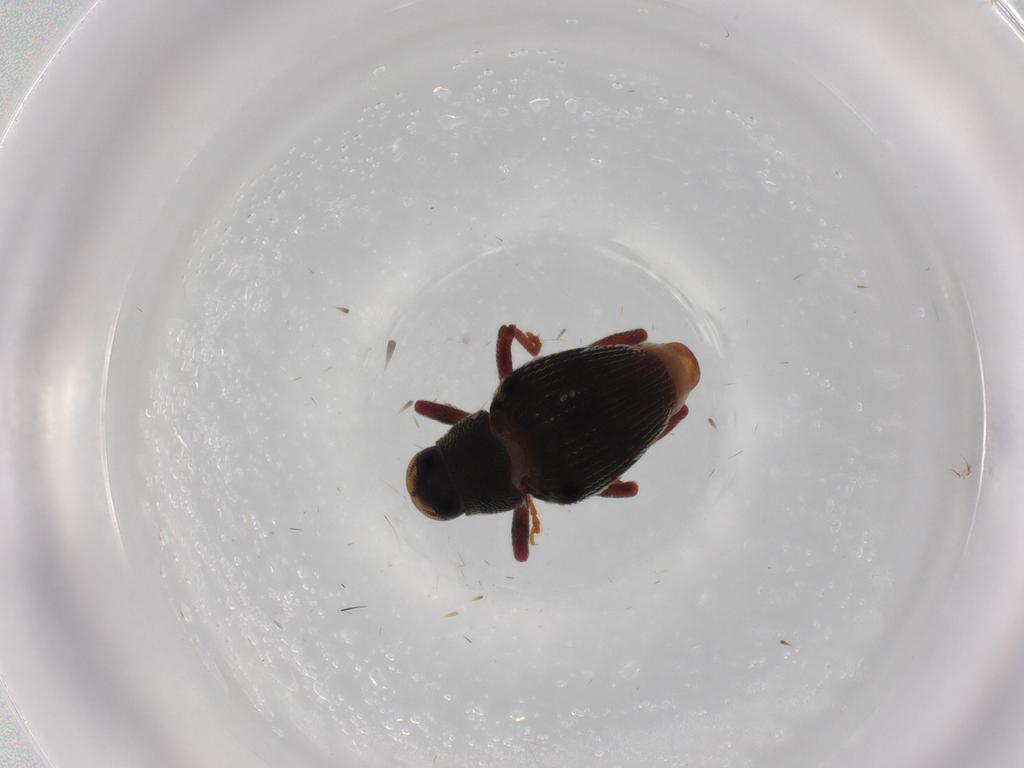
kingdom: Animalia
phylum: Arthropoda
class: Insecta
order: Coleoptera
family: Curculionidae
